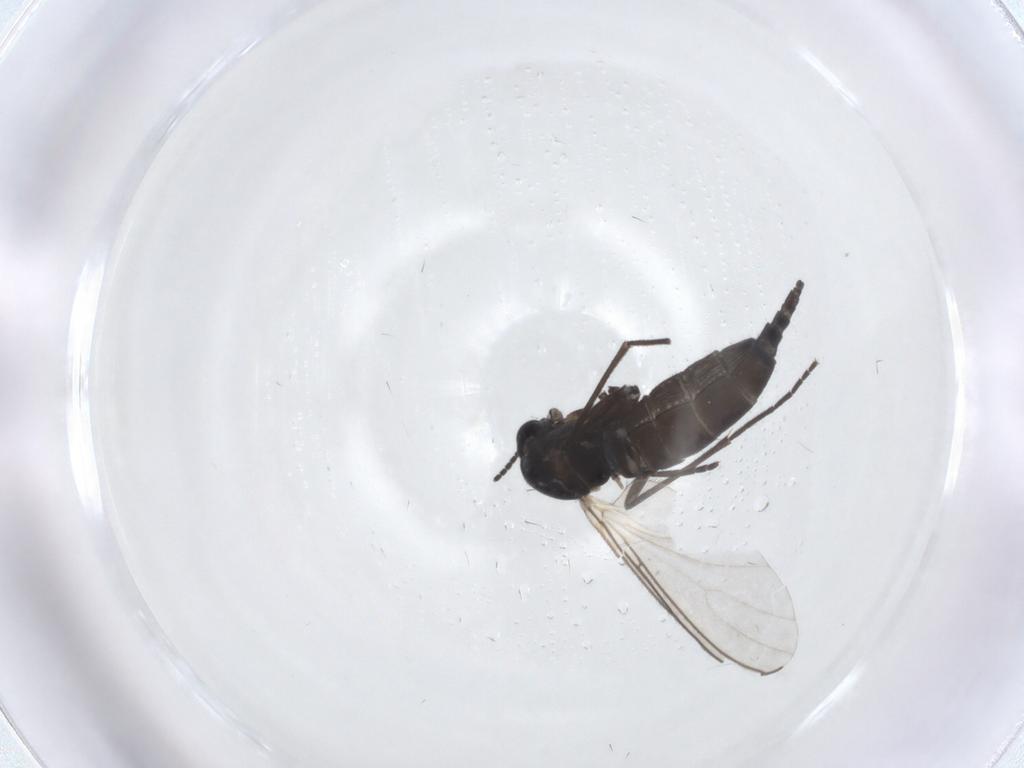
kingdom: Animalia
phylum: Arthropoda
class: Insecta
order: Diptera
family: Sciaridae
